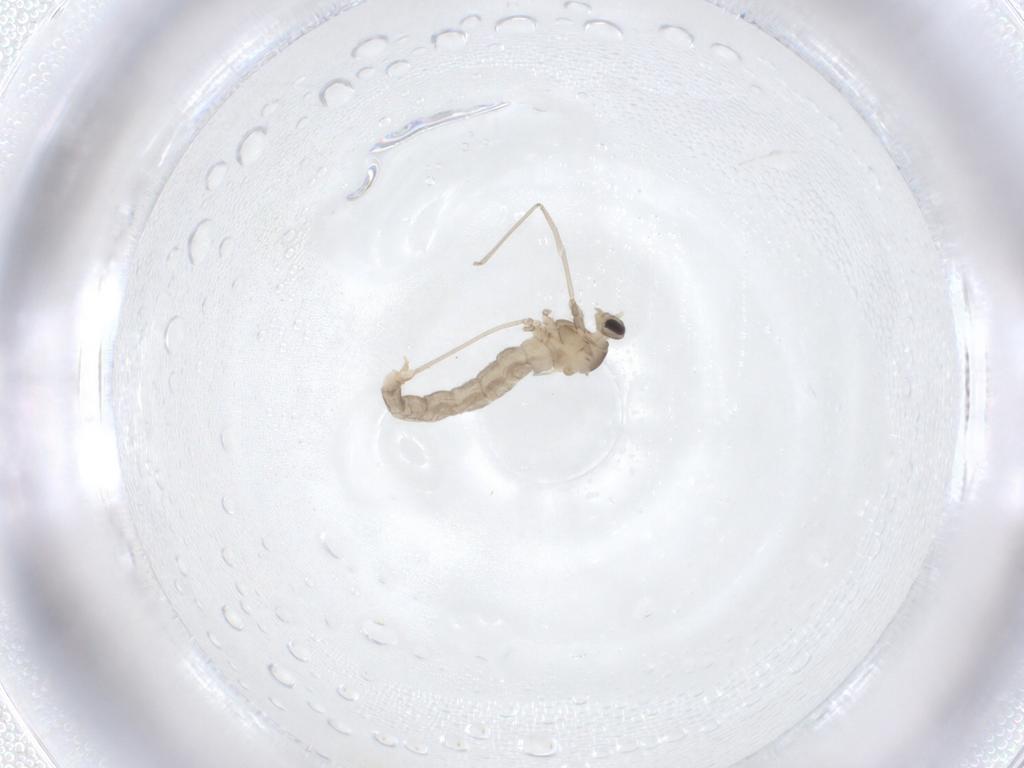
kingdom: Animalia
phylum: Arthropoda
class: Insecta
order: Diptera
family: Cecidomyiidae
